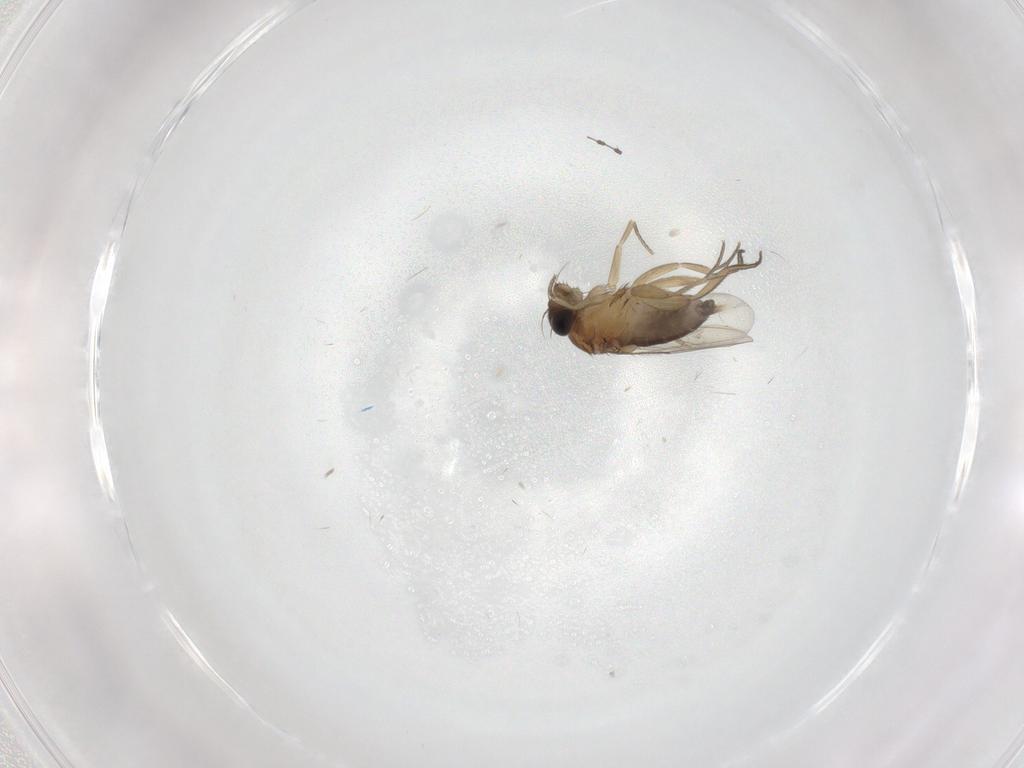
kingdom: Animalia
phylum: Arthropoda
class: Insecta
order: Diptera
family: Phoridae
